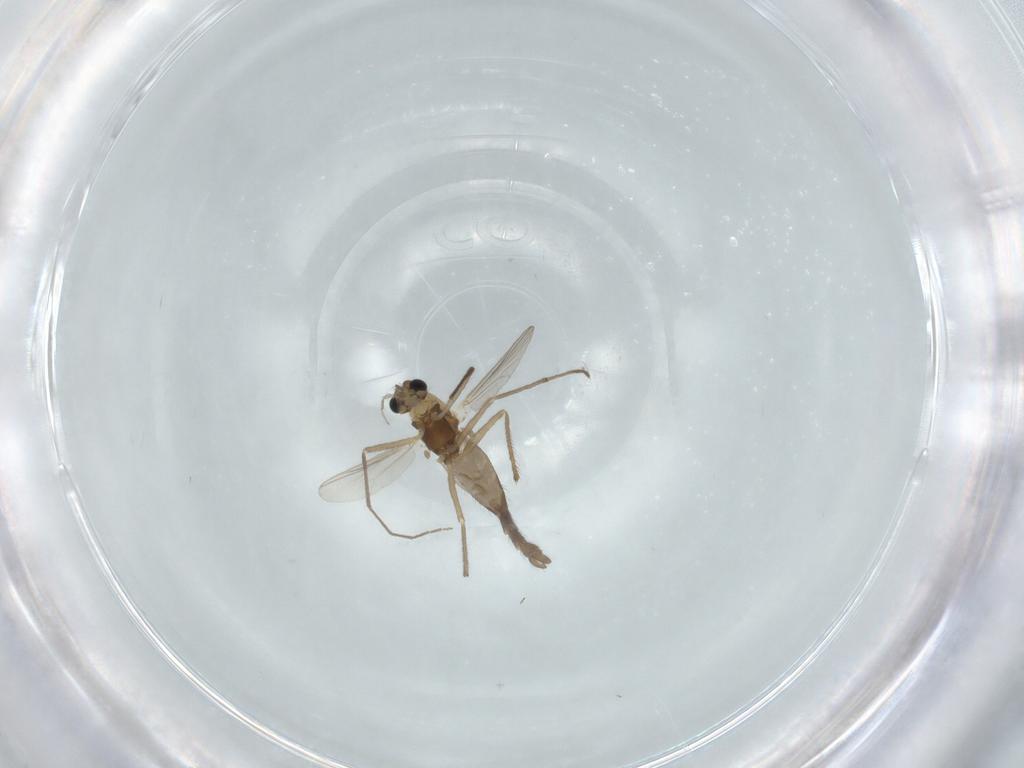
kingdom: Animalia
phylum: Arthropoda
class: Insecta
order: Diptera
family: Chironomidae
